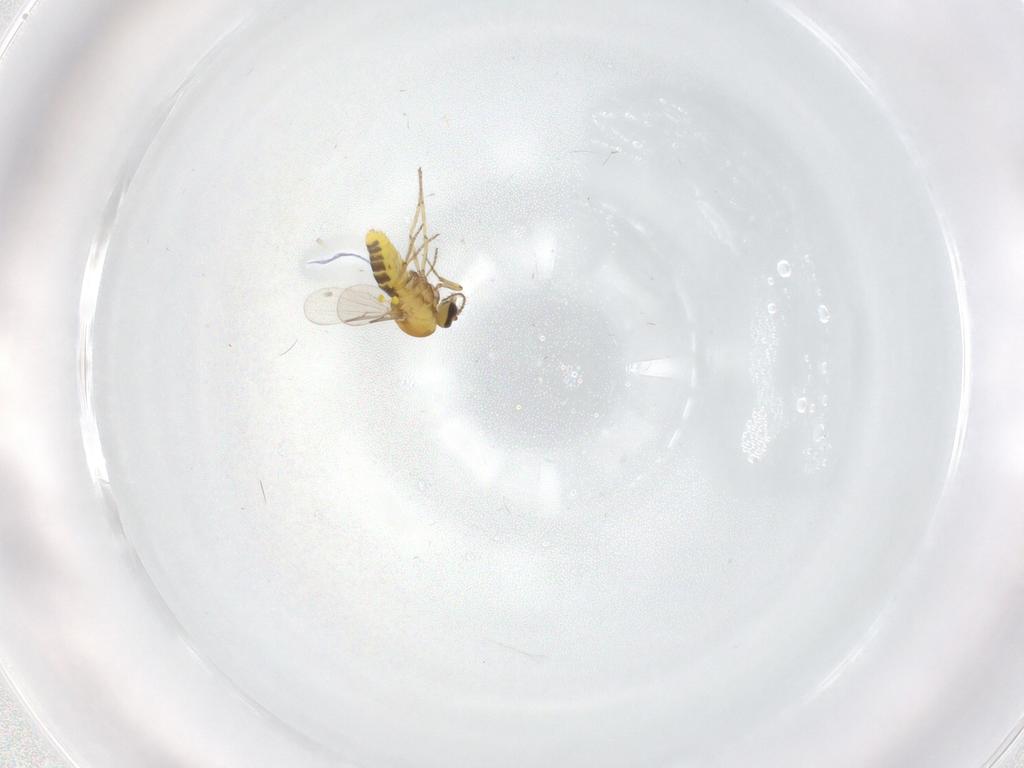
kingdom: Animalia
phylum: Arthropoda
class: Insecta
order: Diptera
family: Ceratopogonidae
